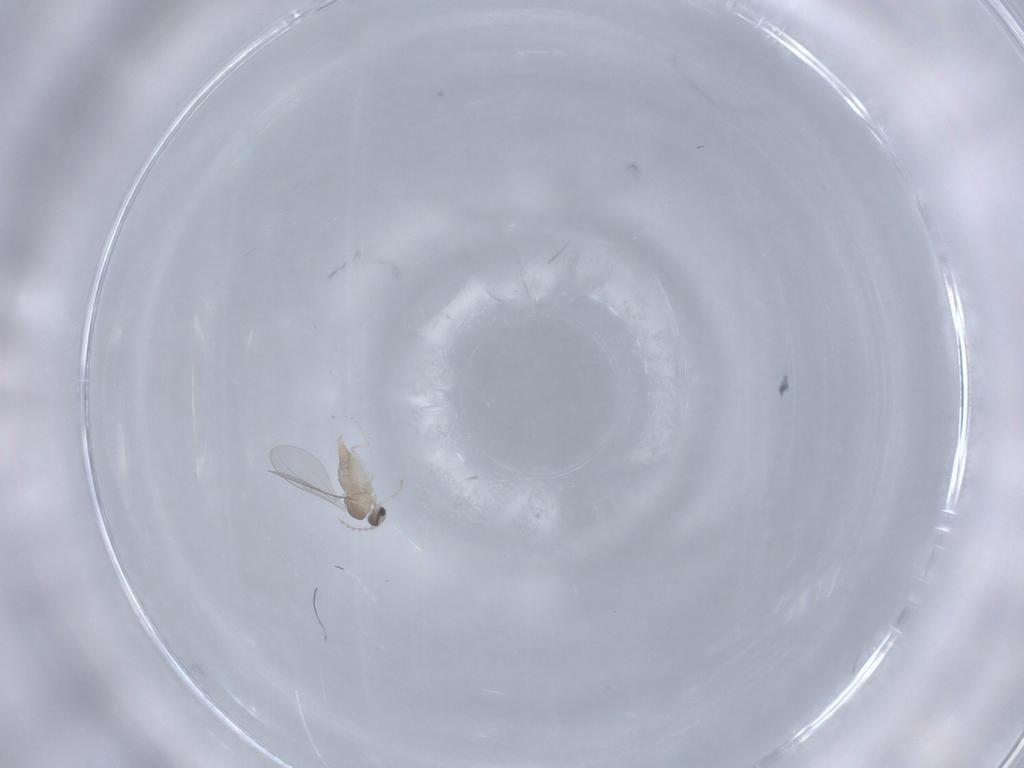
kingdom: Animalia
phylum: Arthropoda
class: Insecta
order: Diptera
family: Cecidomyiidae
